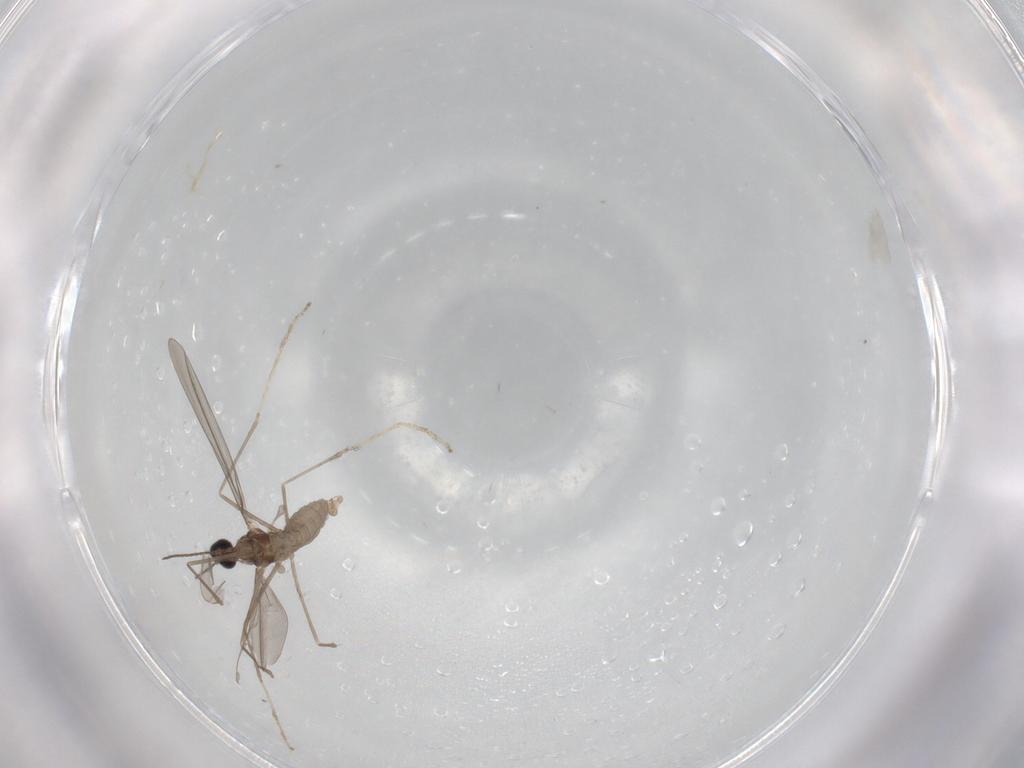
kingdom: Animalia
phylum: Arthropoda
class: Insecta
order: Diptera
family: Cecidomyiidae
